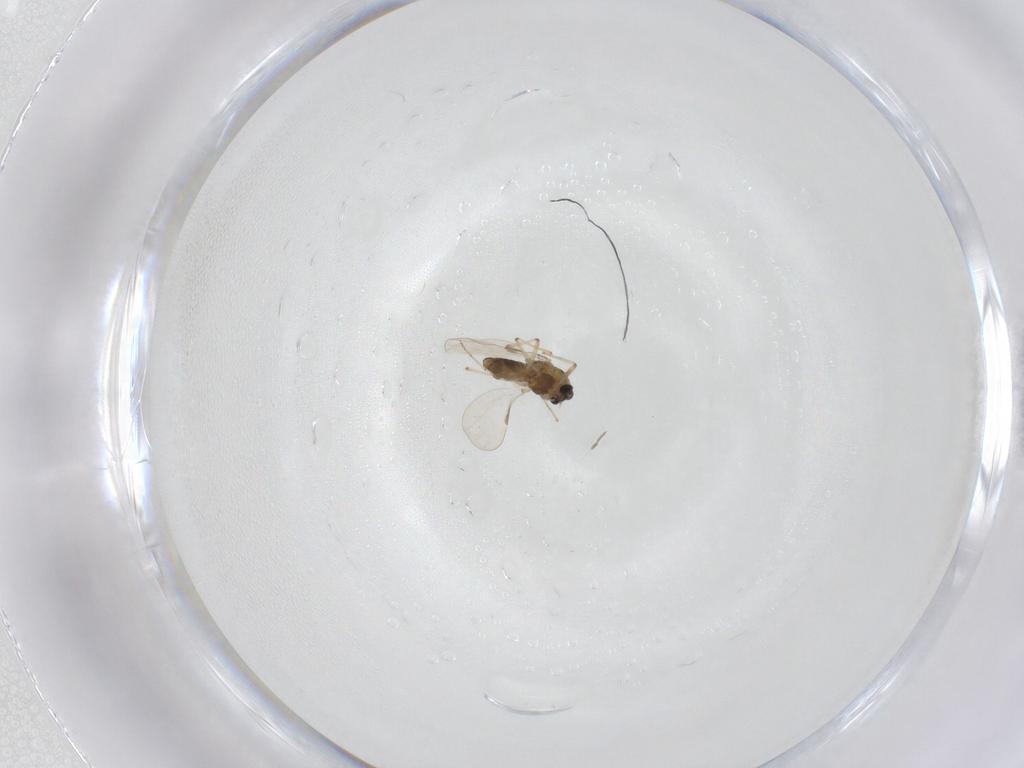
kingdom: Animalia
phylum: Arthropoda
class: Insecta
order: Diptera
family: Chironomidae
